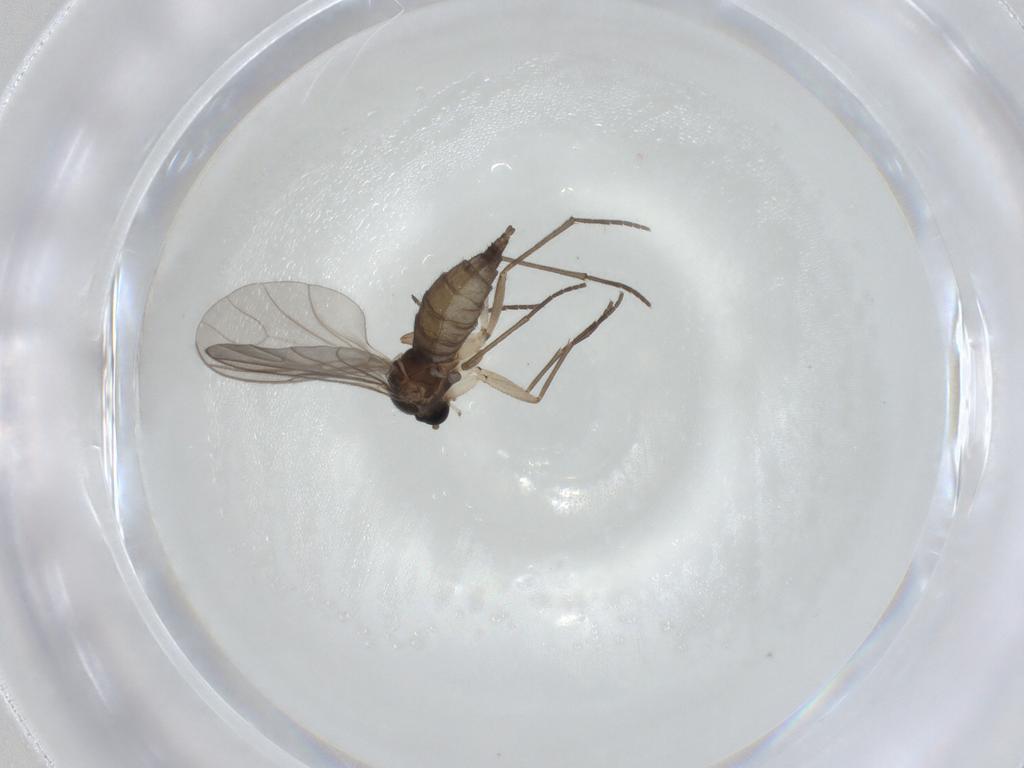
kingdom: Animalia
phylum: Arthropoda
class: Insecta
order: Diptera
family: Sciaridae
